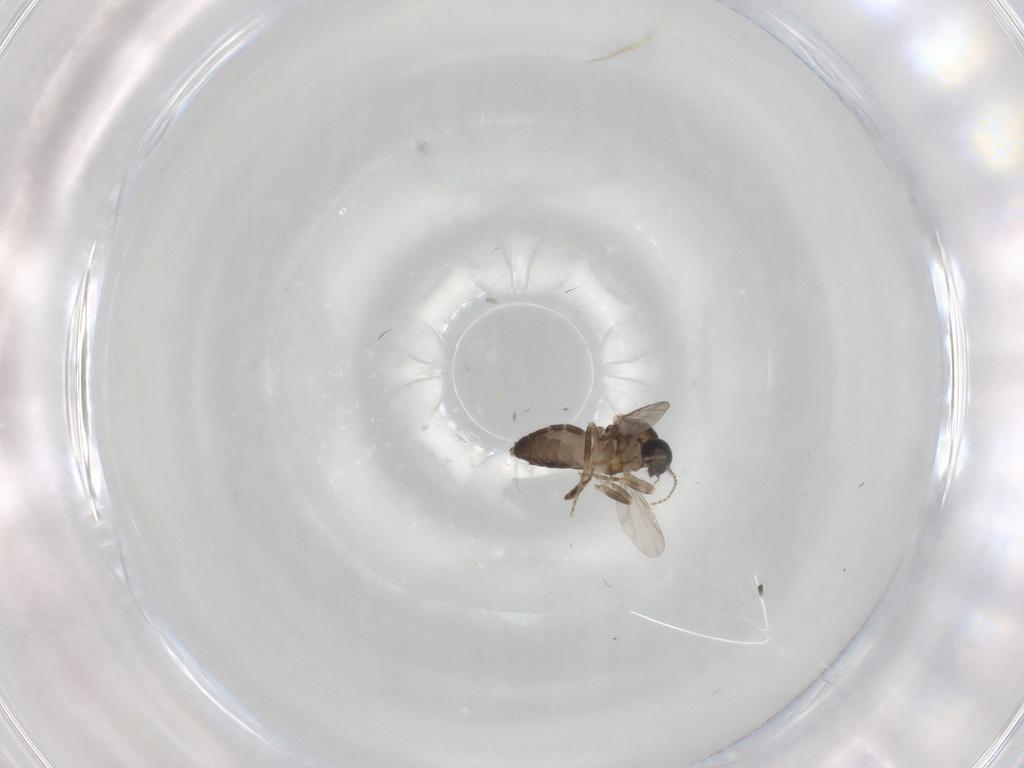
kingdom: Animalia
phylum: Arthropoda
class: Insecta
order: Diptera
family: Ceratopogonidae
